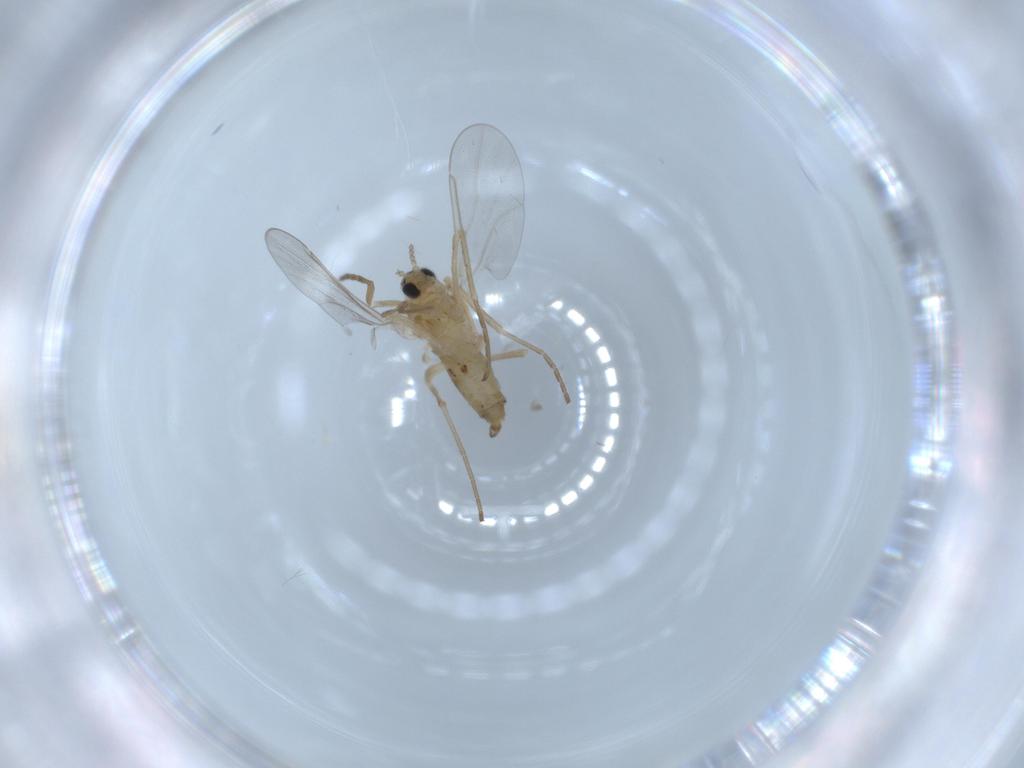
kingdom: Animalia
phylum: Arthropoda
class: Insecta
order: Diptera
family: Cecidomyiidae
